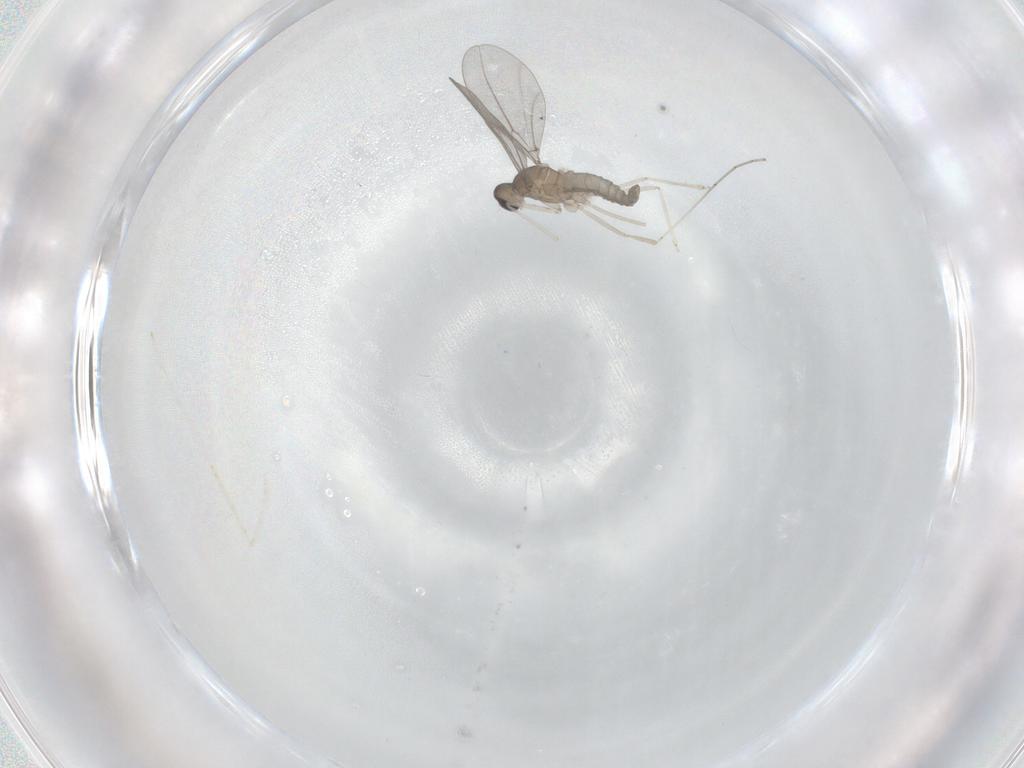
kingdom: Animalia
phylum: Arthropoda
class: Insecta
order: Diptera
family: Cecidomyiidae
